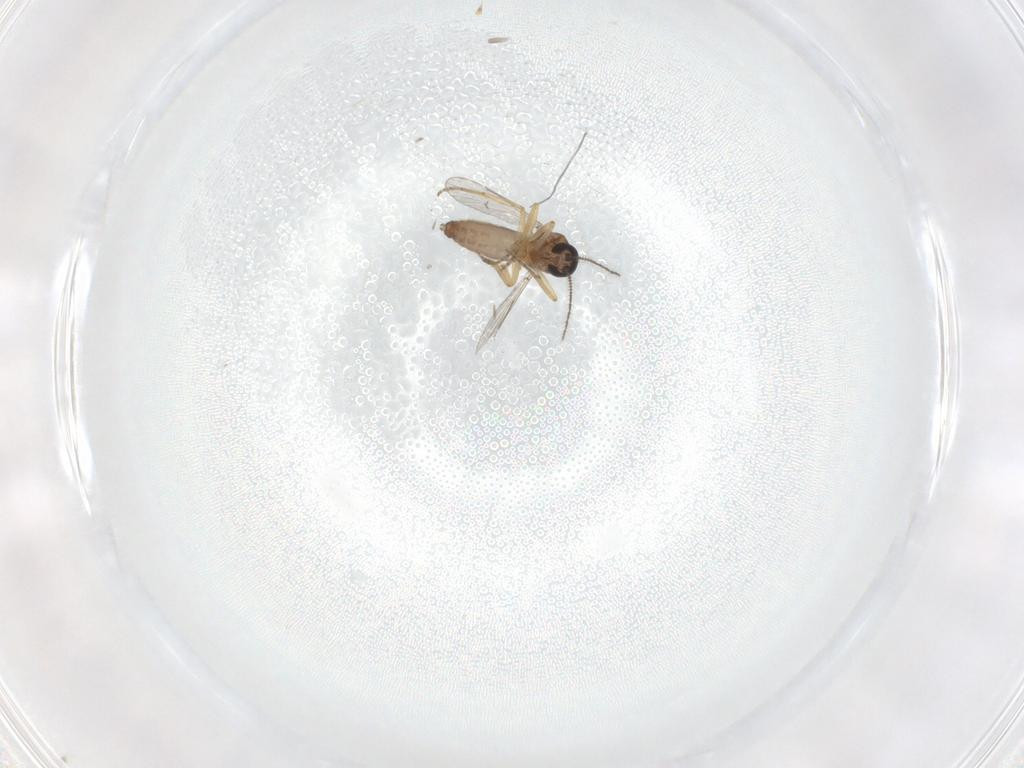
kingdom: Animalia
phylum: Arthropoda
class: Insecta
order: Diptera
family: Ceratopogonidae
